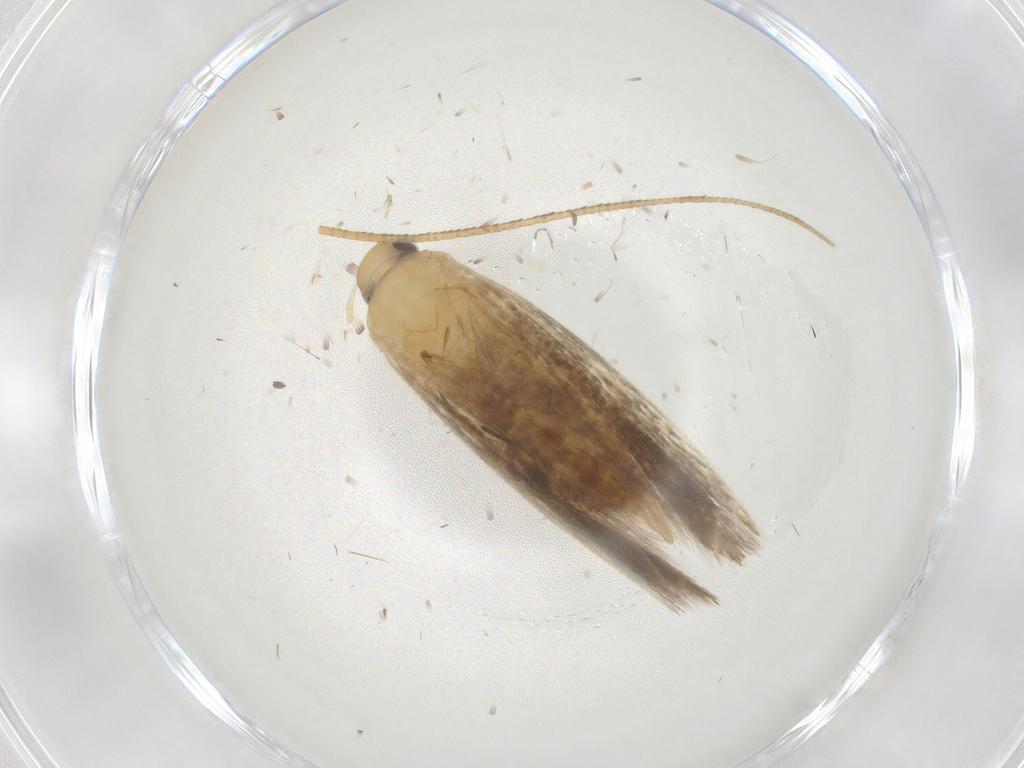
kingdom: Animalia
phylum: Arthropoda
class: Insecta
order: Lepidoptera
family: Gelechiidae
